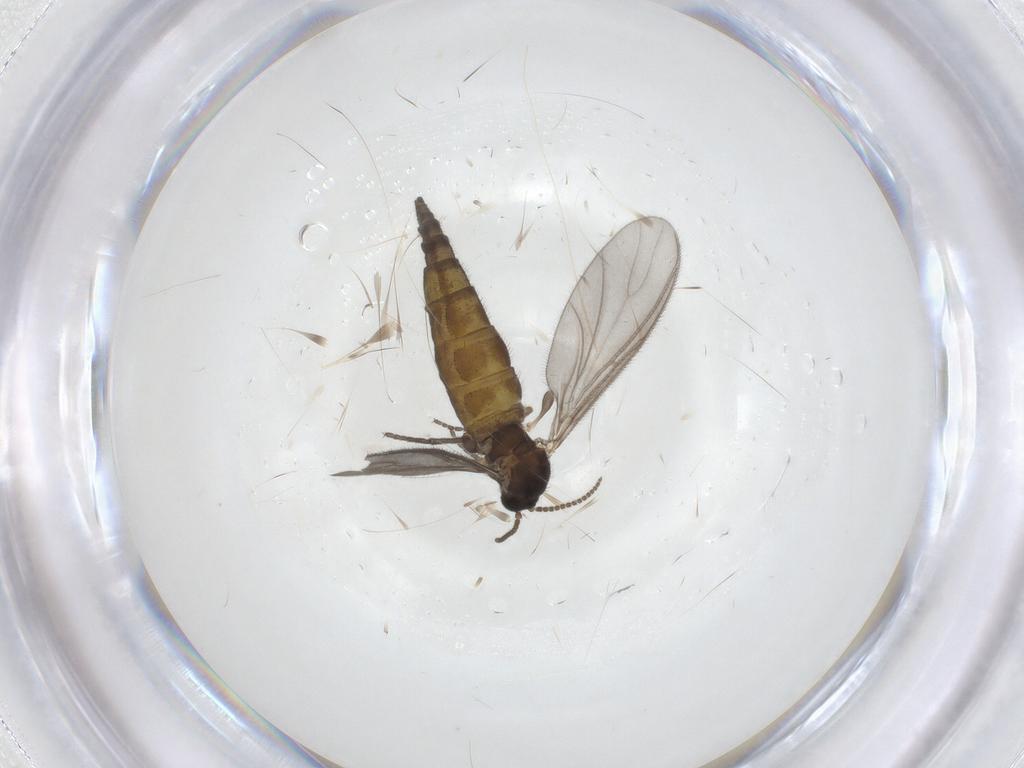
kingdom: Animalia
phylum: Arthropoda
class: Insecta
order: Diptera
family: Sciaridae
